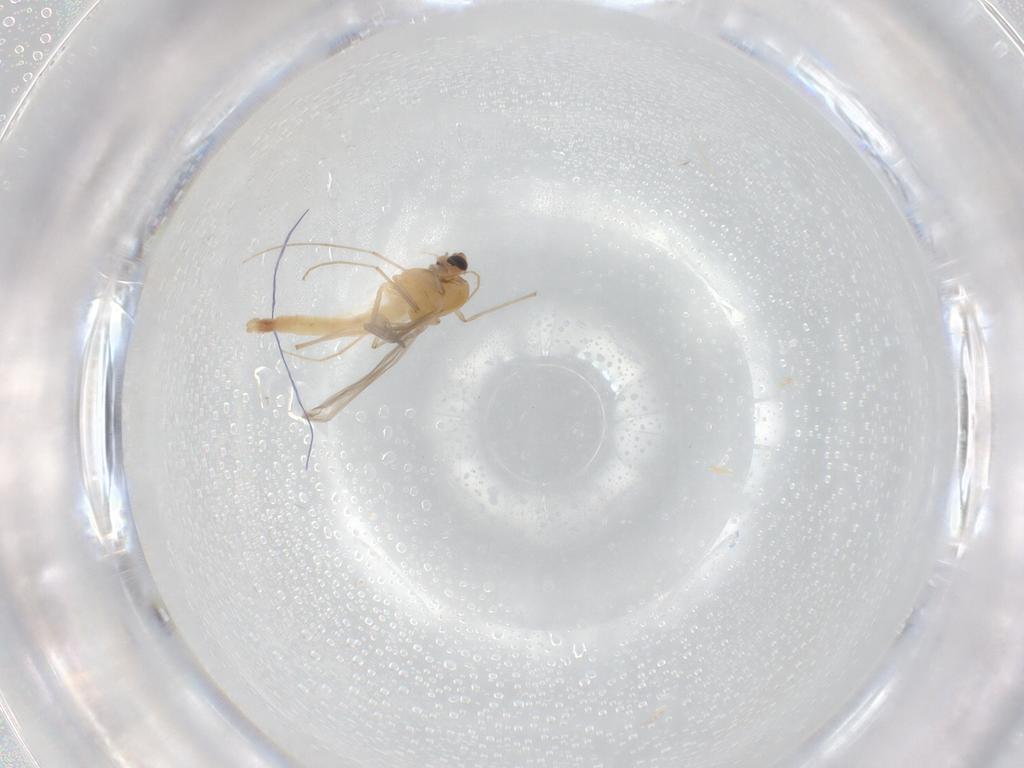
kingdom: Animalia
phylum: Arthropoda
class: Insecta
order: Diptera
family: Chironomidae
